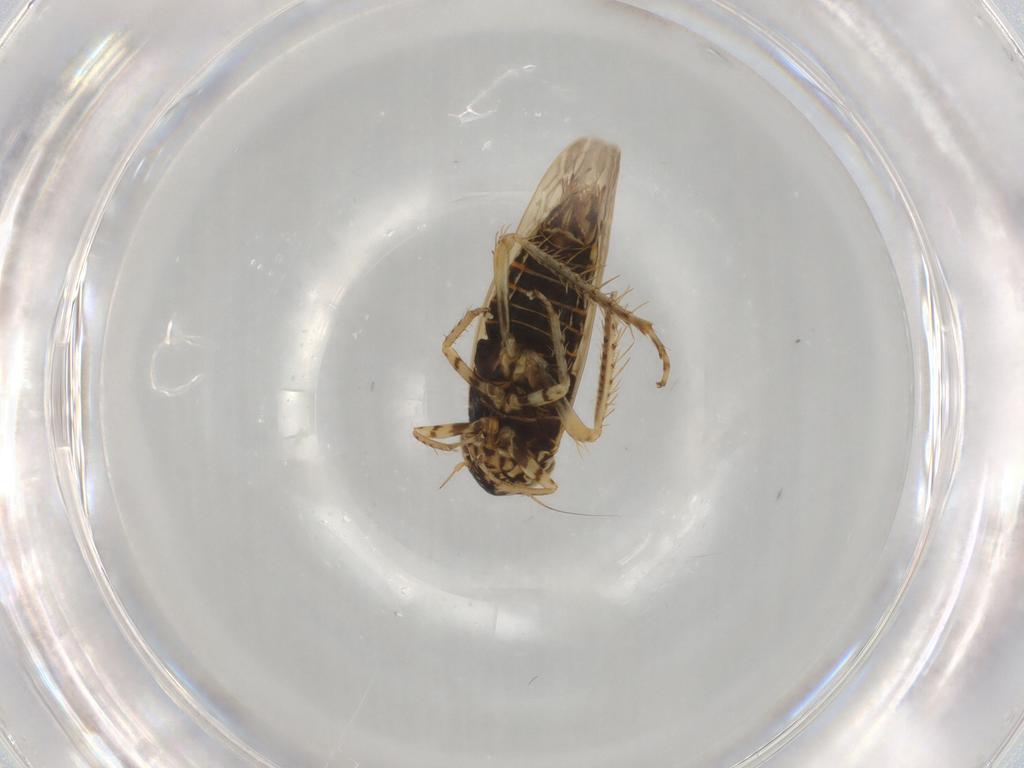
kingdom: Animalia
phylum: Arthropoda
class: Insecta
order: Hemiptera
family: Cicadellidae
